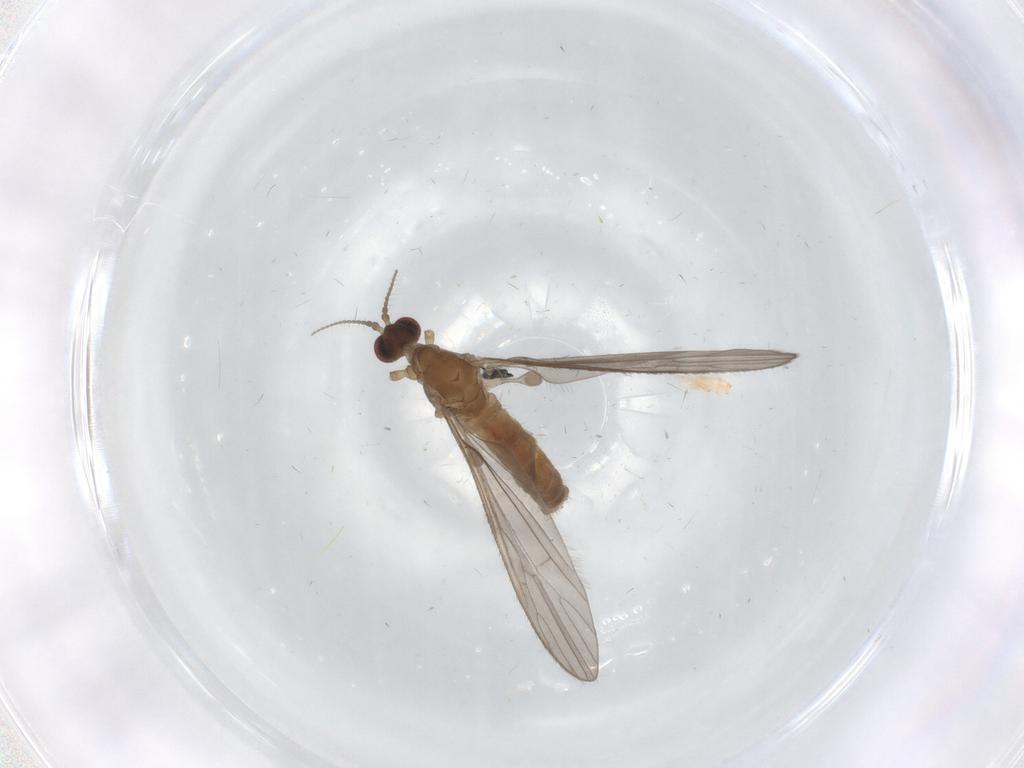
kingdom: Animalia
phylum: Arthropoda
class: Insecta
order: Diptera
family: Limoniidae
